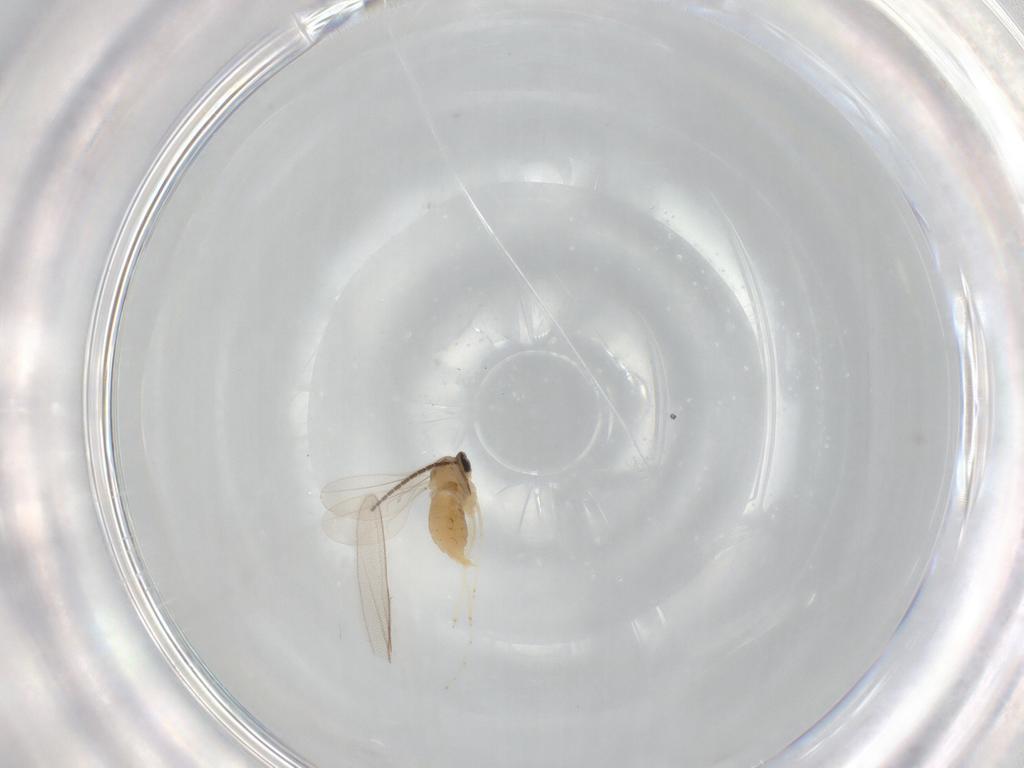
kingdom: Animalia
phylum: Arthropoda
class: Insecta
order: Diptera
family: Cecidomyiidae
